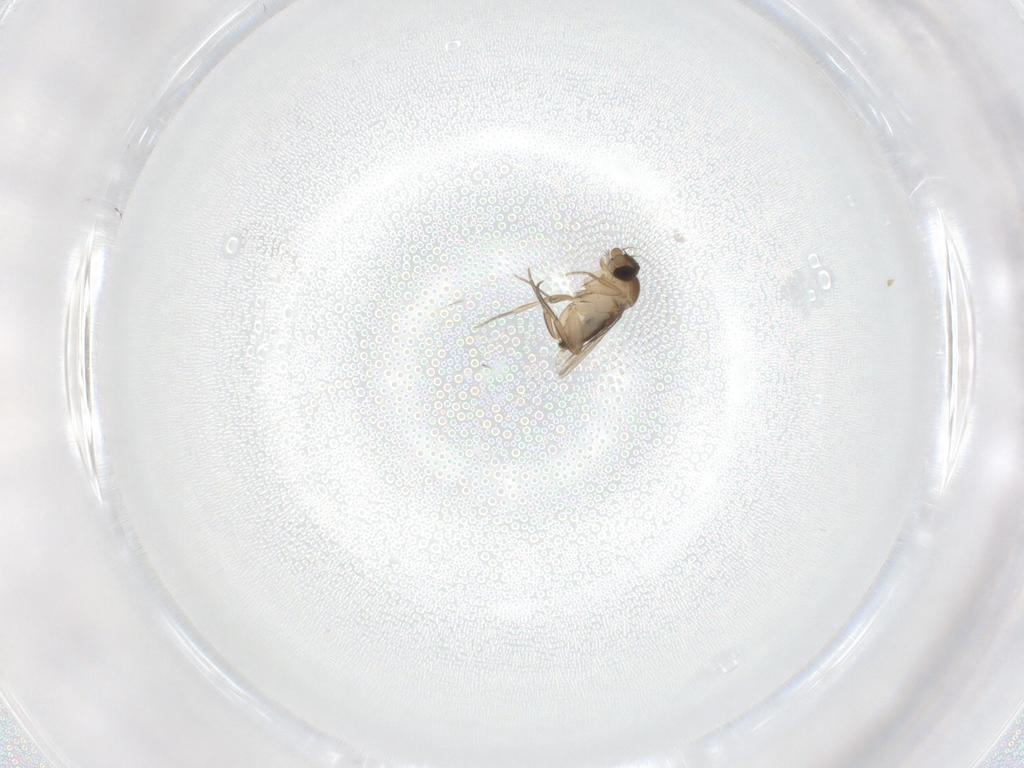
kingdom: Animalia
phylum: Arthropoda
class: Insecta
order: Diptera
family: Phoridae
